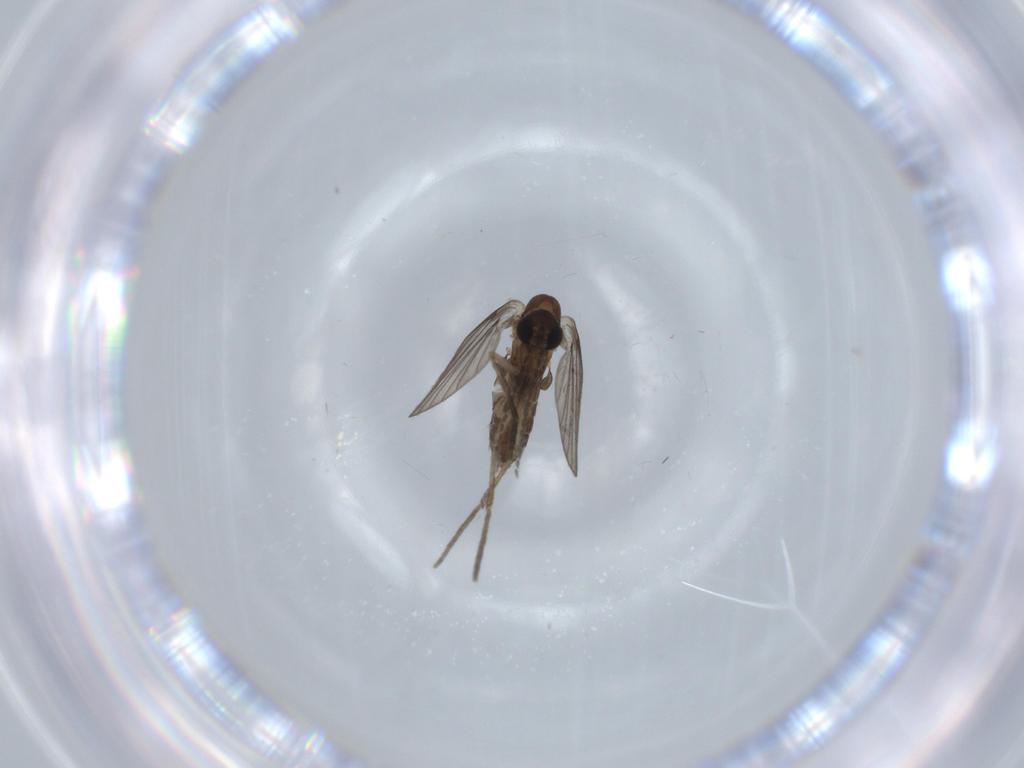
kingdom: Animalia
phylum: Arthropoda
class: Insecta
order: Diptera
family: Psychodidae
